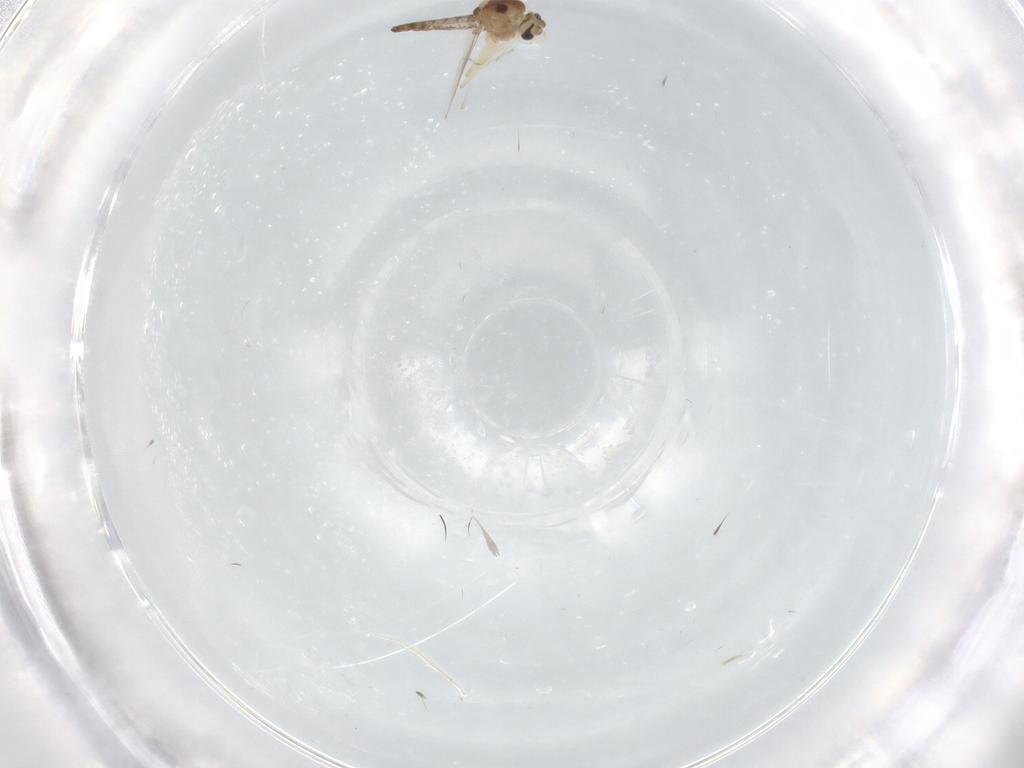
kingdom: Animalia
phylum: Arthropoda
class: Insecta
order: Diptera
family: Chironomidae
